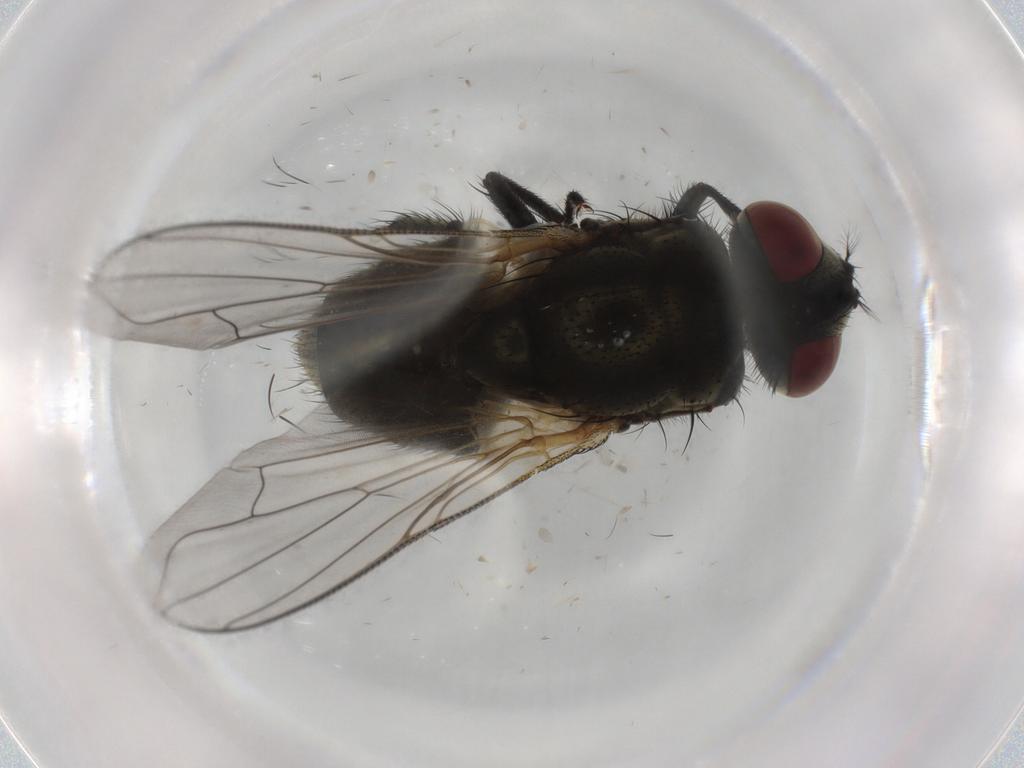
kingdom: Animalia
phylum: Arthropoda
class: Insecta
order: Diptera
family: Muscidae
